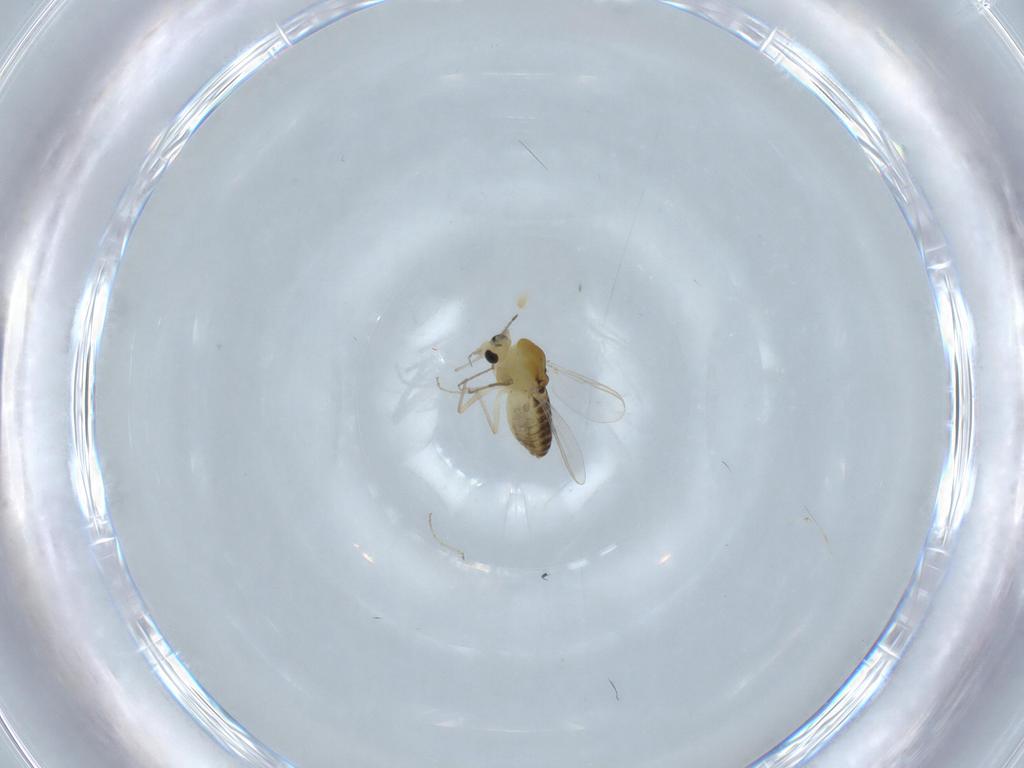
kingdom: Animalia
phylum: Arthropoda
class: Insecta
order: Diptera
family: Chironomidae
